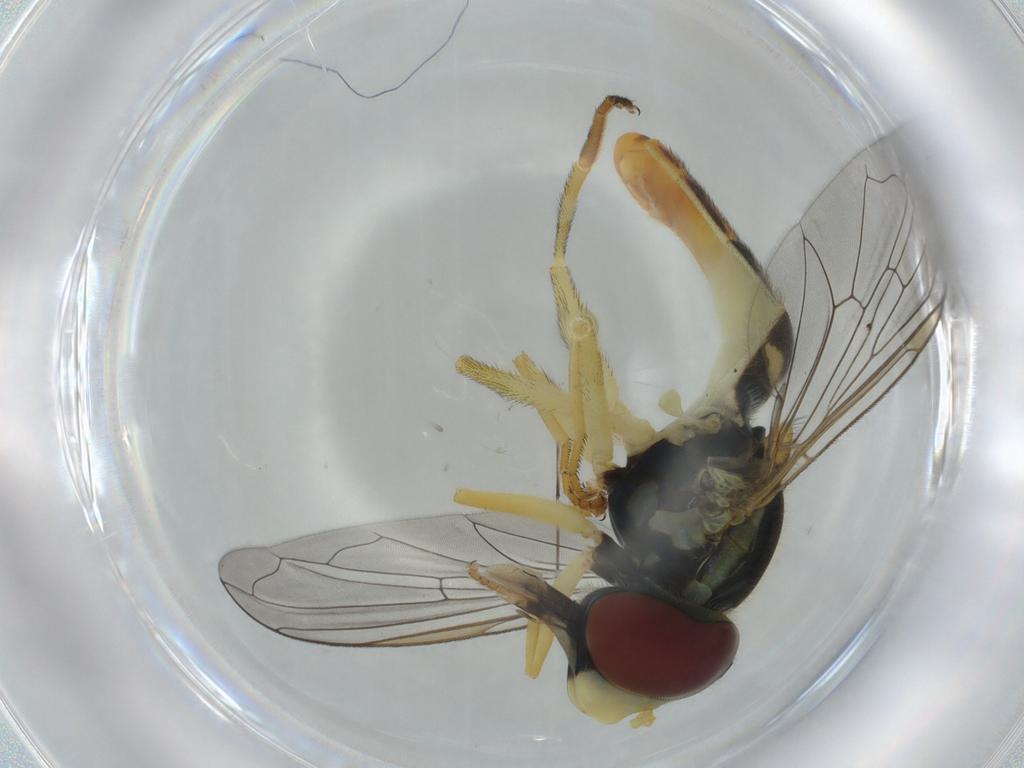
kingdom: Animalia
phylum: Arthropoda
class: Insecta
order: Diptera
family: Syrphidae
